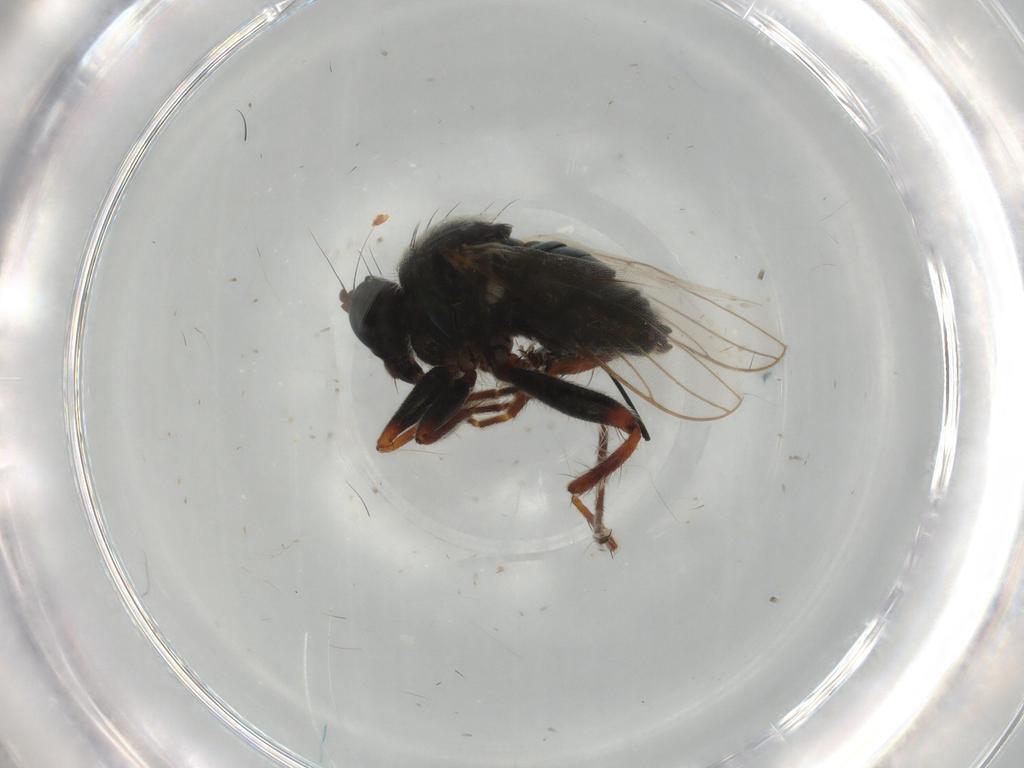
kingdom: Animalia
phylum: Arthropoda
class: Insecta
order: Diptera
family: Hybotidae
